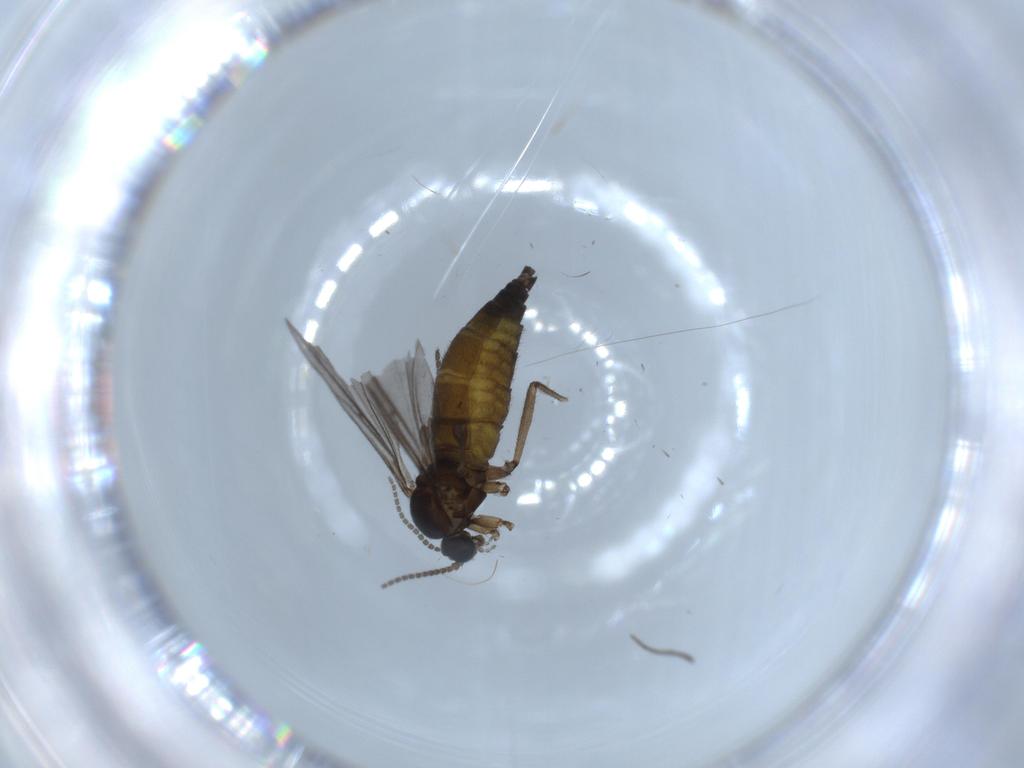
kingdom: Animalia
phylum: Arthropoda
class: Insecta
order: Diptera
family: Sciaridae
